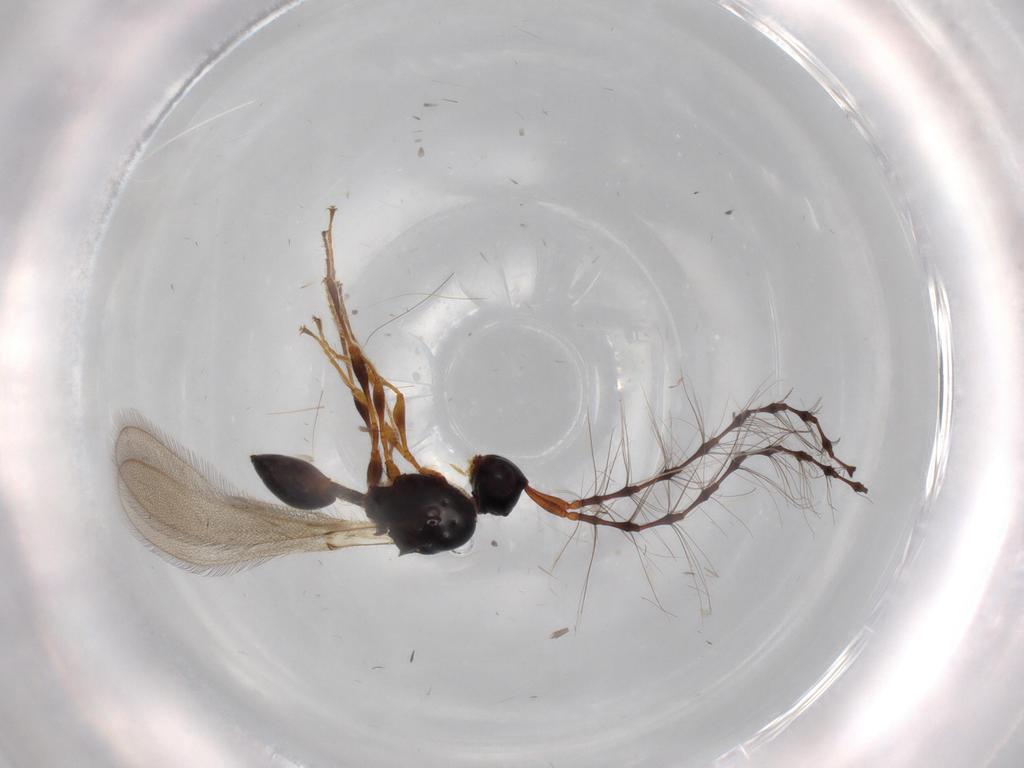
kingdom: Animalia
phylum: Arthropoda
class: Insecta
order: Hymenoptera
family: Diapriidae
